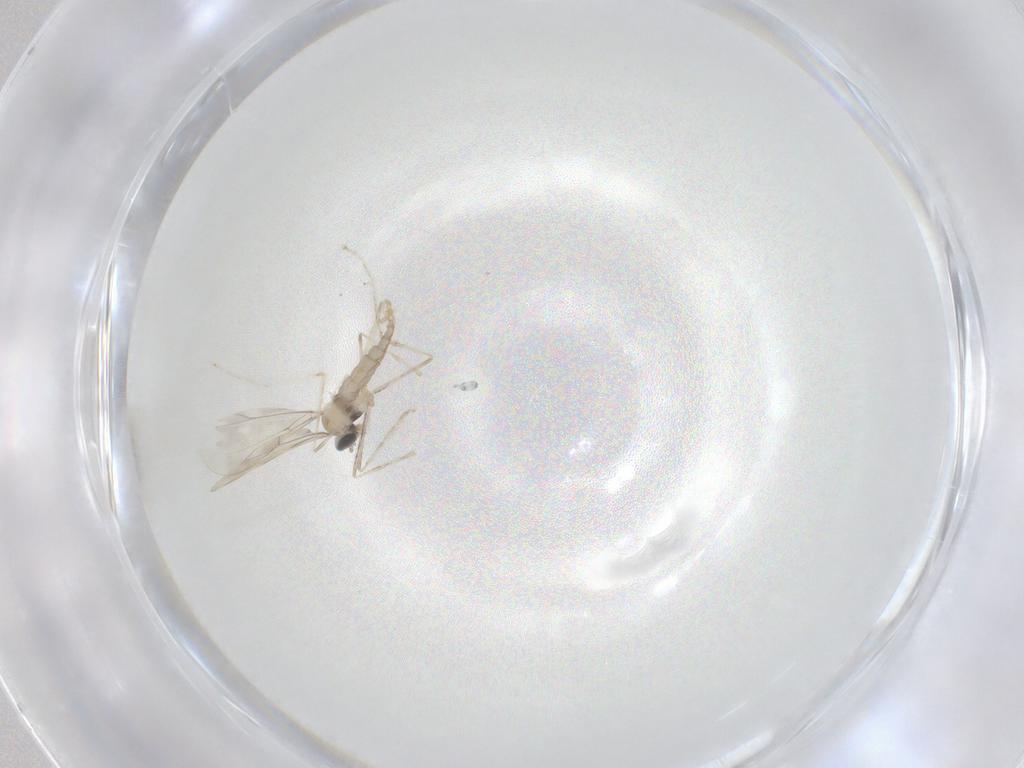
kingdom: Animalia
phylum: Arthropoda
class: Insecta
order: Diptera
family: Cecidomyiidae
